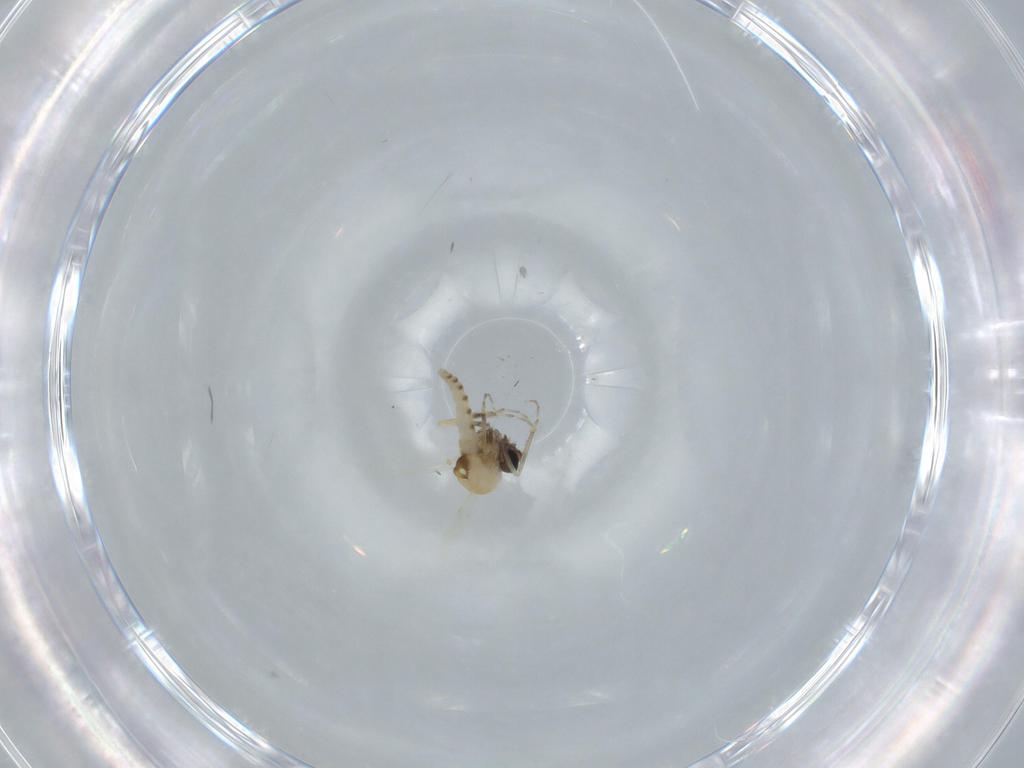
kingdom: Animalia
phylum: Arthropoda
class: Insecta
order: Diptera
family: Ceratopogonidae
